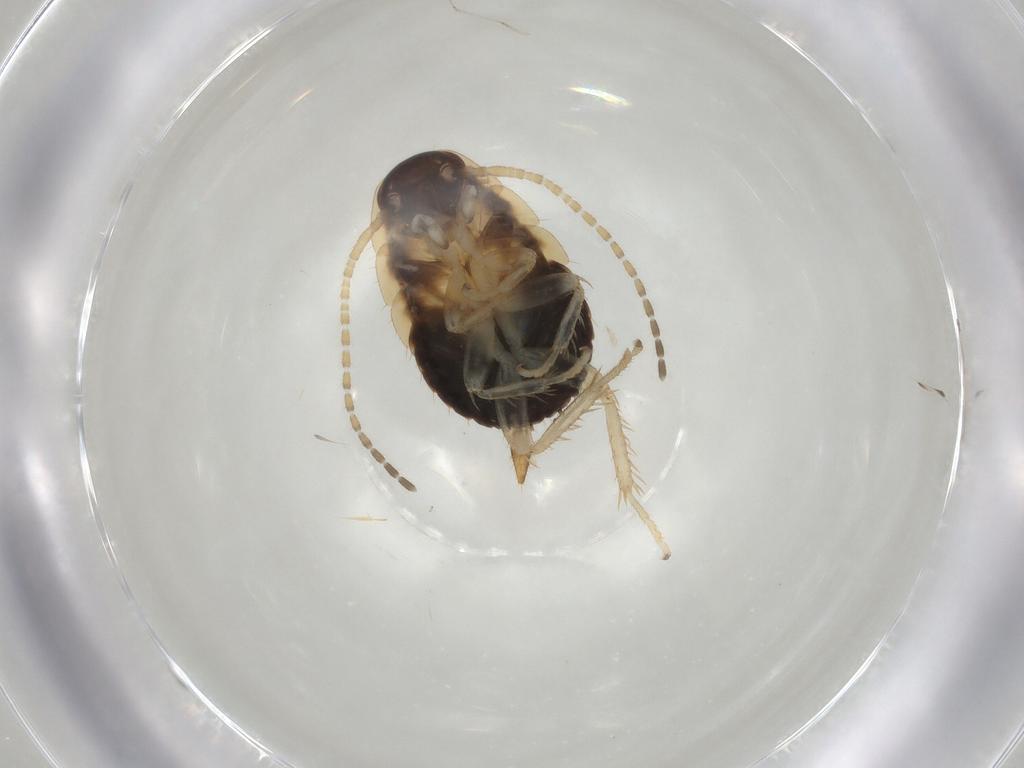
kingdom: Animalia
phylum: Arthropoda
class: Insecta
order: Blattodea
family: Ectobiidae
